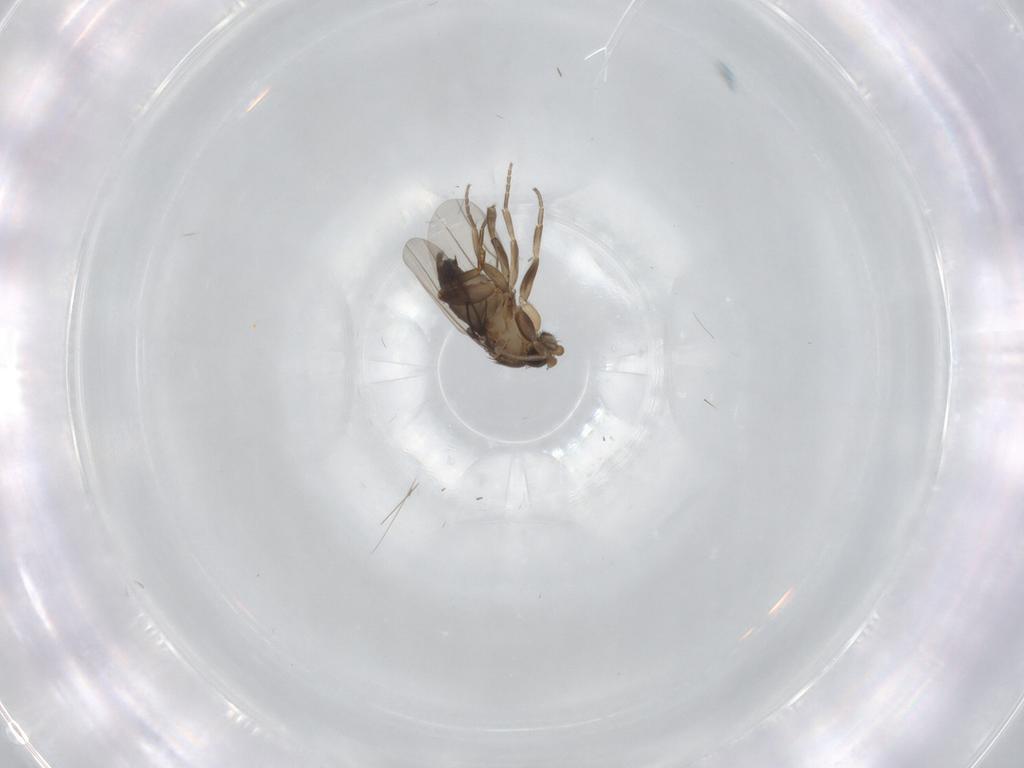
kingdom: Animalia
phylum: Arthropoda
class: Insecta
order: Diptera
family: Phoridae
